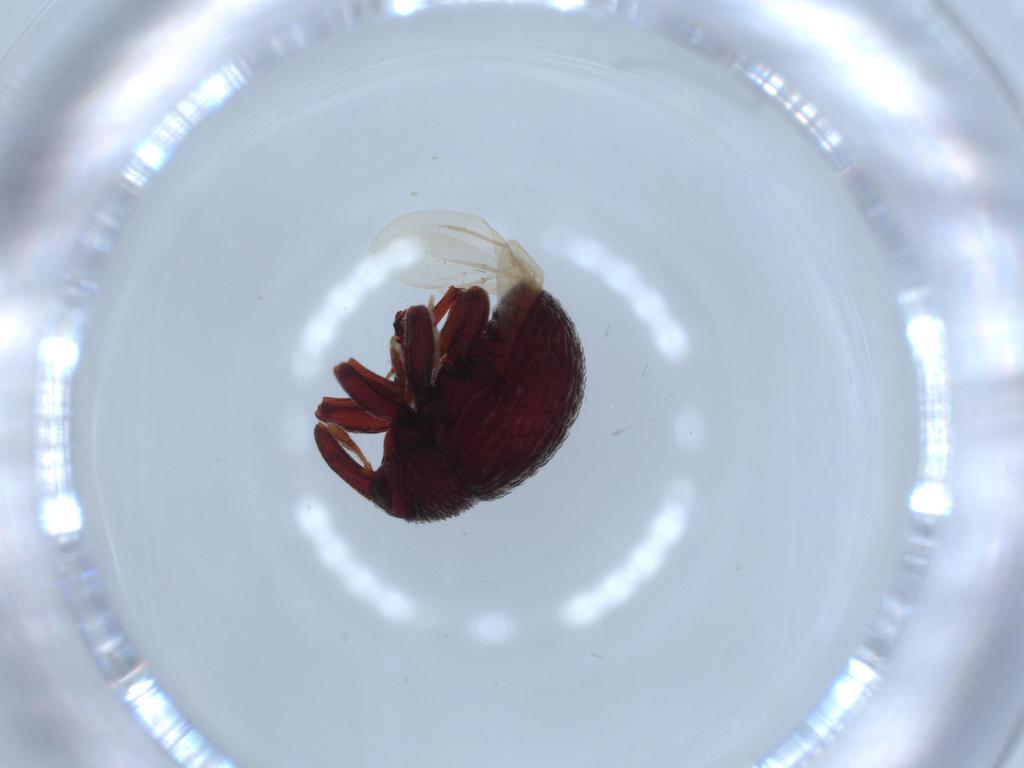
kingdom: Animalia
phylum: Arthropoda
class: Insecta
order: Coleoptera
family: Curculionidae
